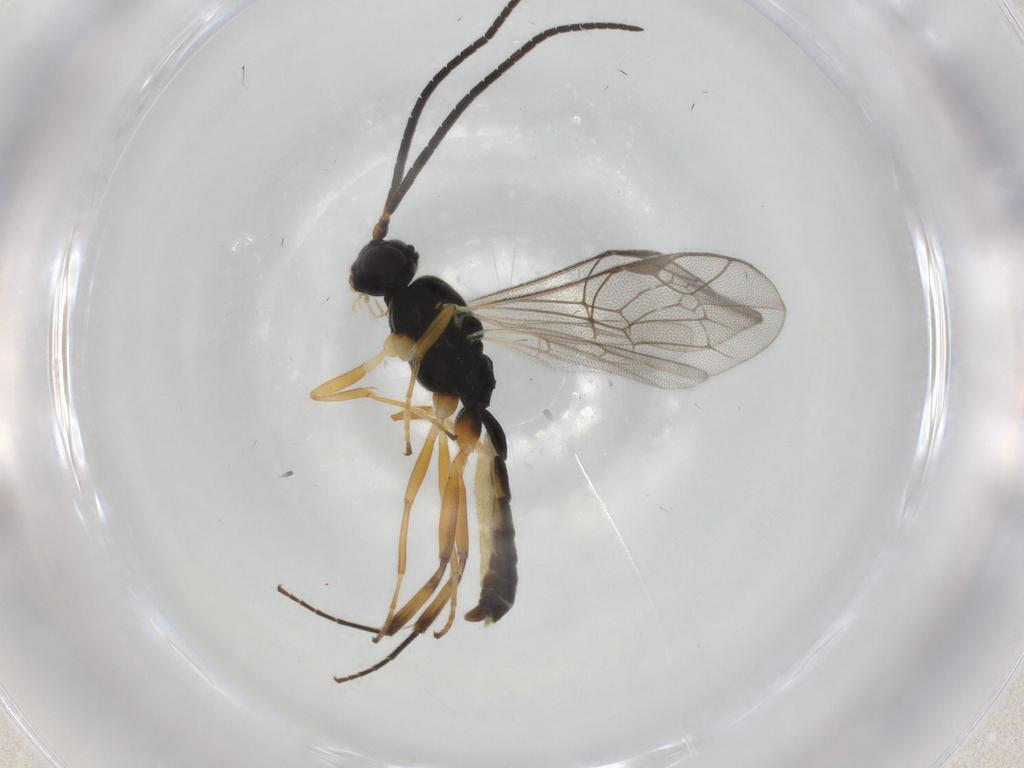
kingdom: Animalia
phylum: Arthropoda
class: Insecta
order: Hymenoptera
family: Ichneumonidae
